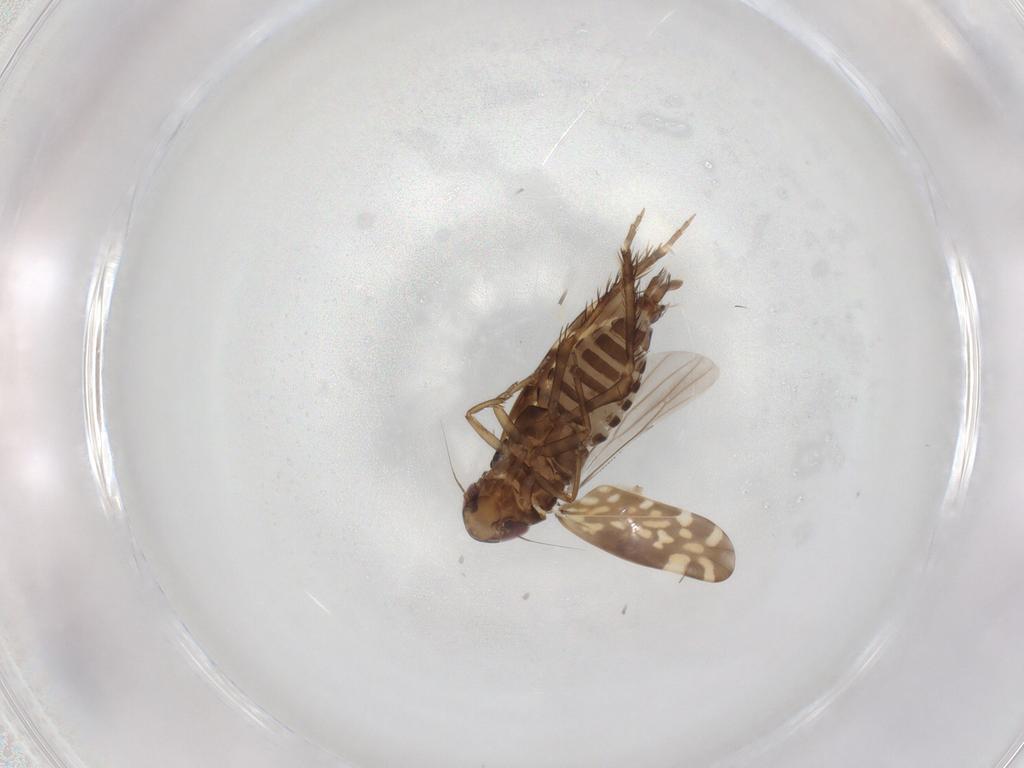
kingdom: Animalia
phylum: Arthropoda
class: Insecta
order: Hemiptera
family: Cicadellidae
